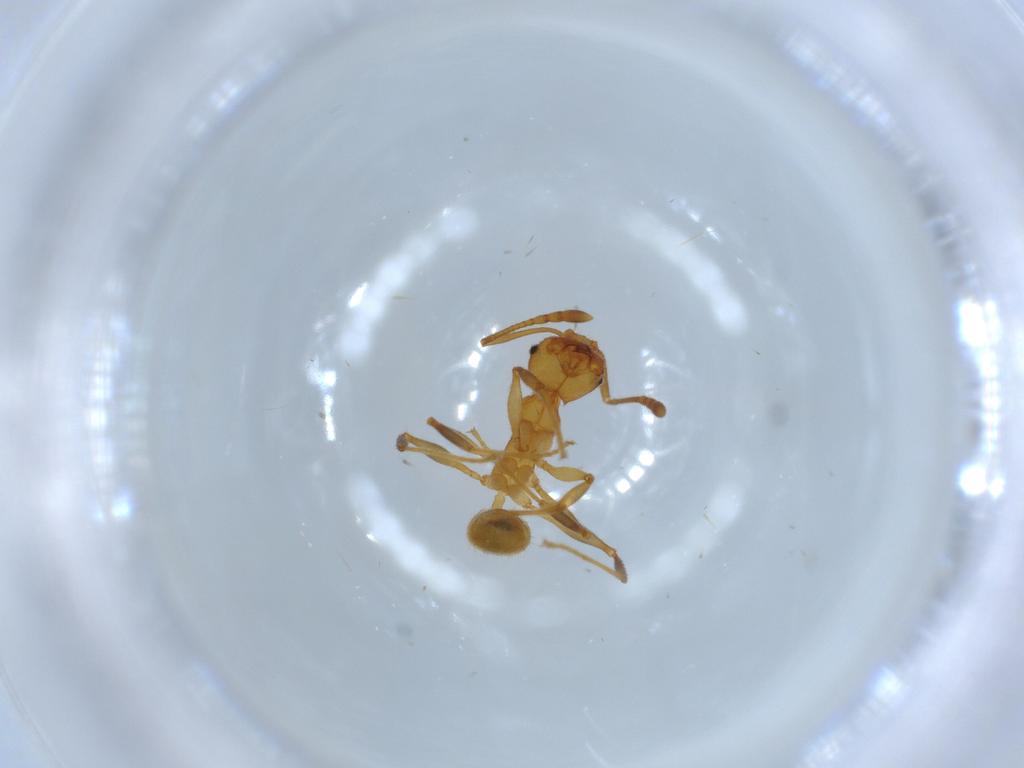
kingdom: Animalia
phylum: Arthropoda
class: Insecta
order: Hymenoptera
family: Formicidae
